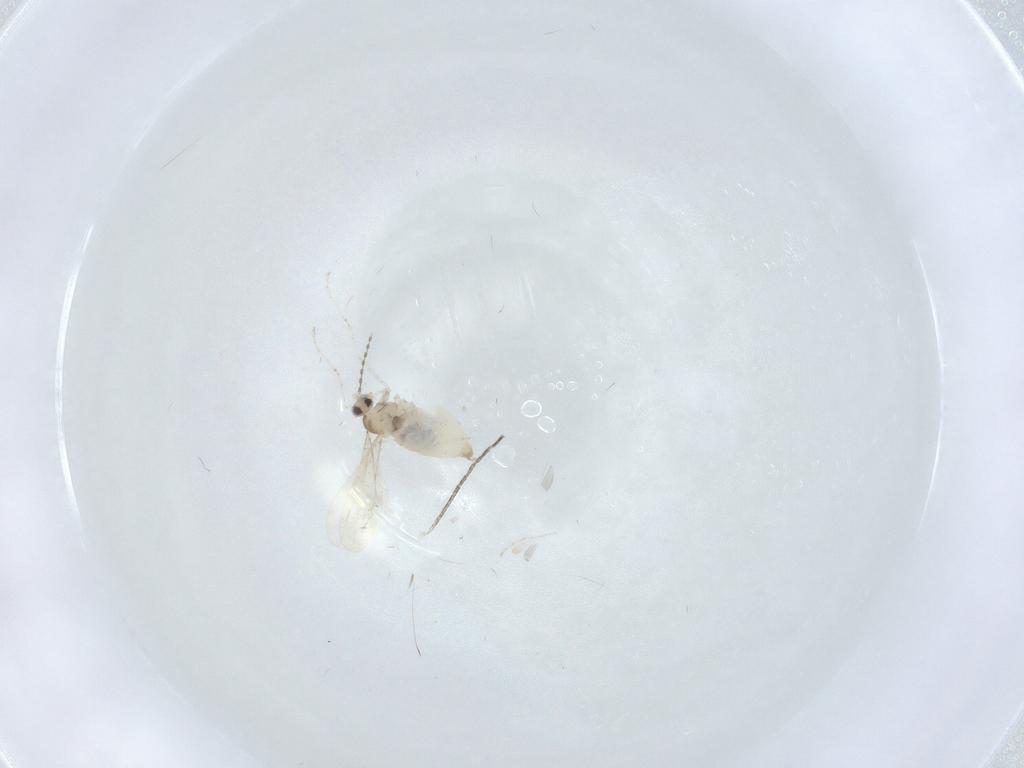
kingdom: Animalia
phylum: Arthropoda
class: Insecta
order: Diptera
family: Cecidomyiidae
